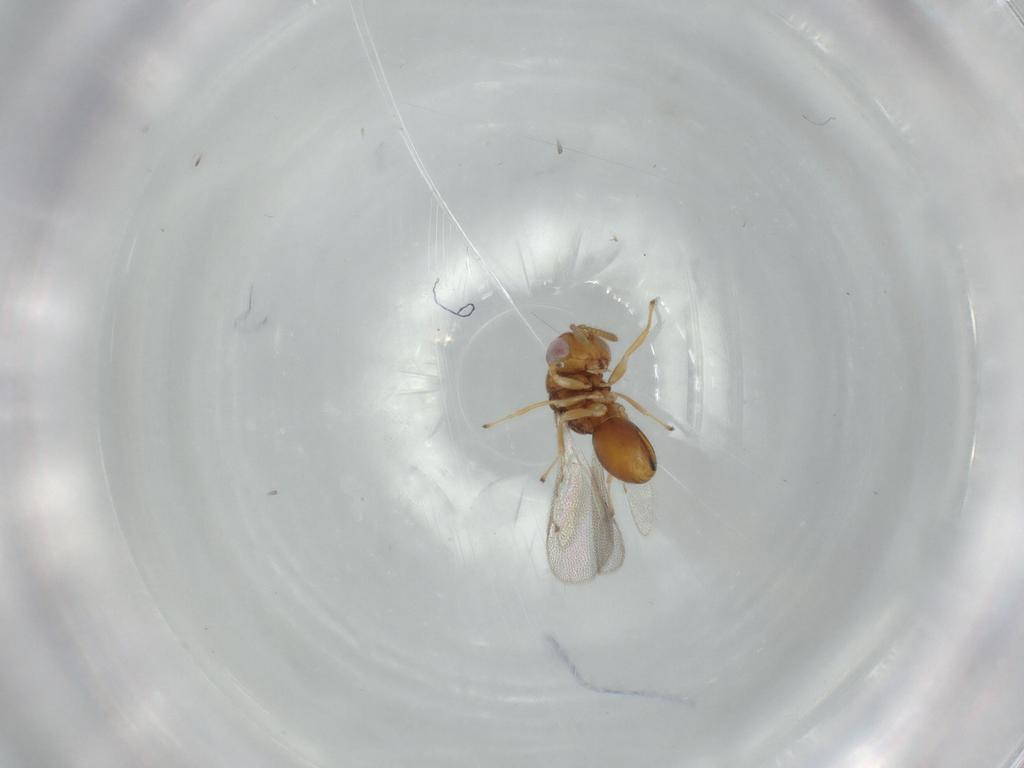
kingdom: Animalia
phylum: Arthropoda
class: Insecta
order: Hymenoptera
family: Eurytomidae
